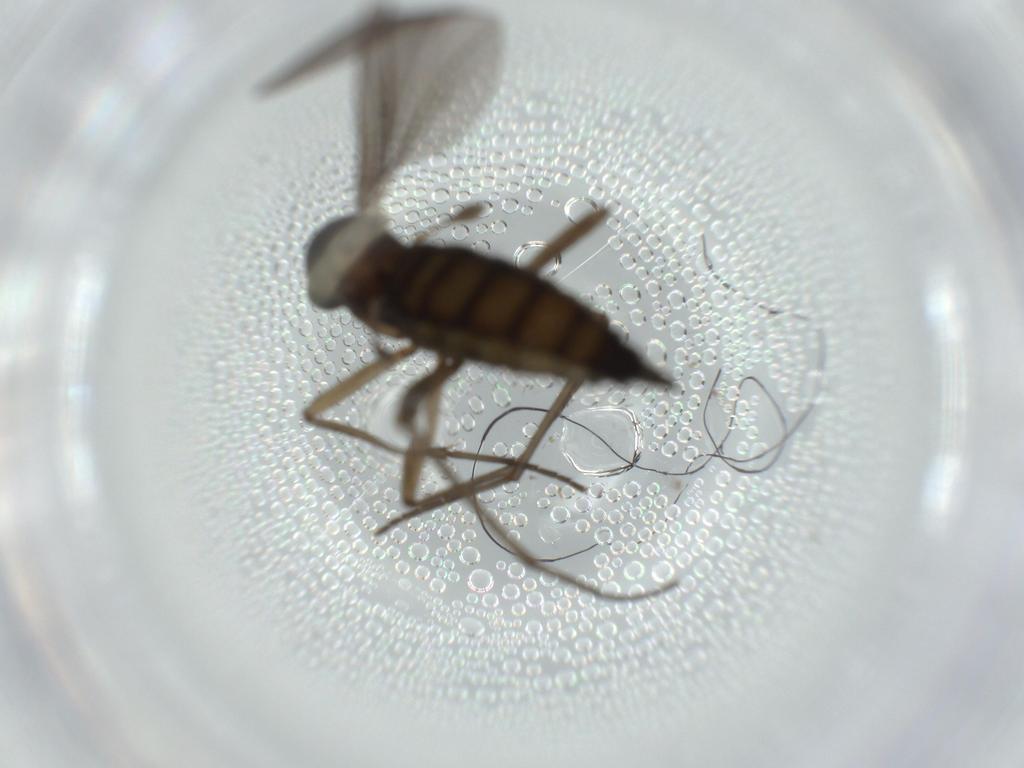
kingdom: Animalia
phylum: Arthropoda
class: Insecta
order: Diptera
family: Sciaridae
